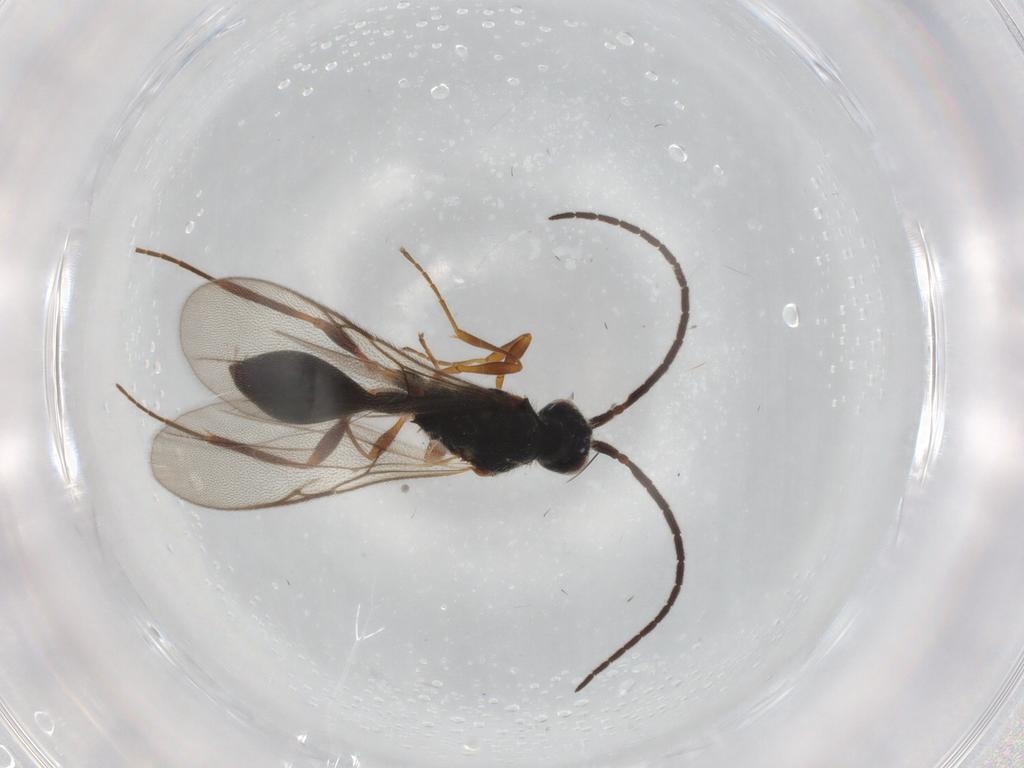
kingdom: Animalia
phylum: Arthropoda
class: Insecta
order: Hymenoptera
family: Diapriidae
